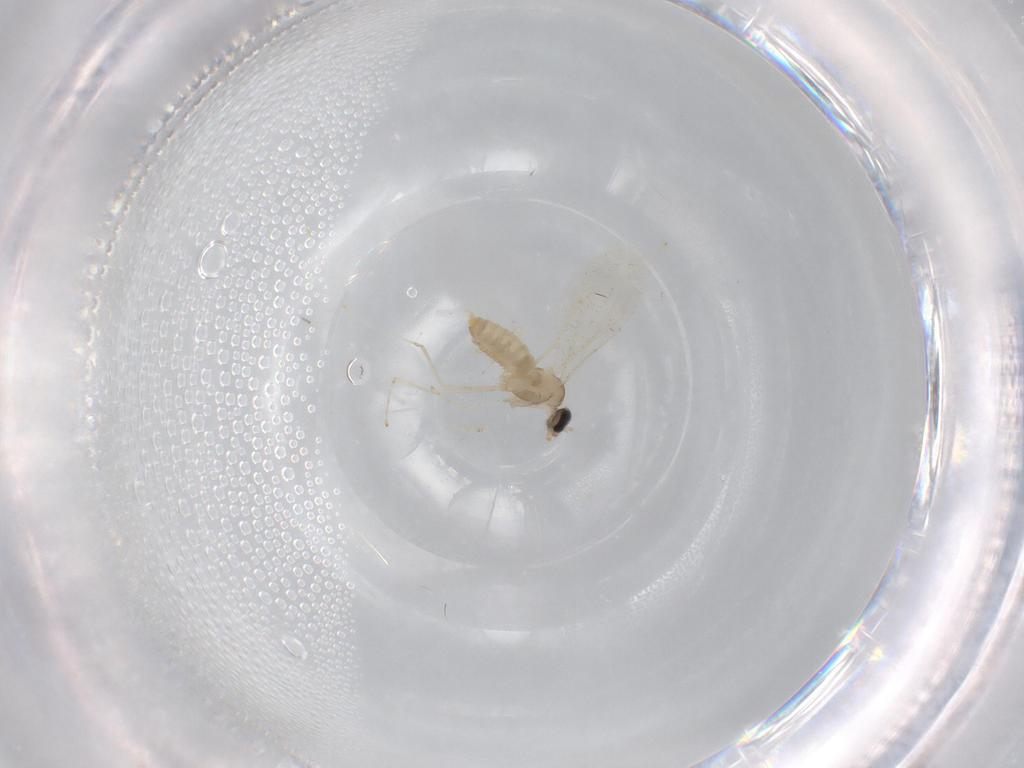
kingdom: Animalia
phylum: Arthropoda
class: Insecta
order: Diptera
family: Cecidomyiidae
